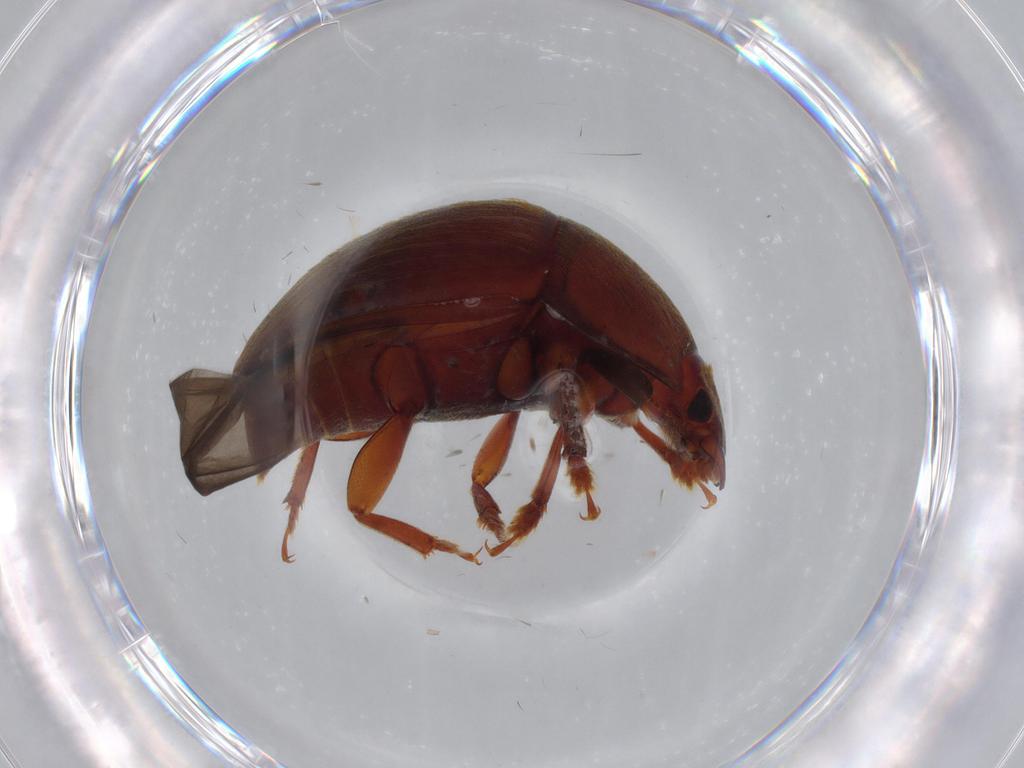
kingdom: Animalia
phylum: Arthropoda
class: Insecta
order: Coleoptera
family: Nitidulidae
